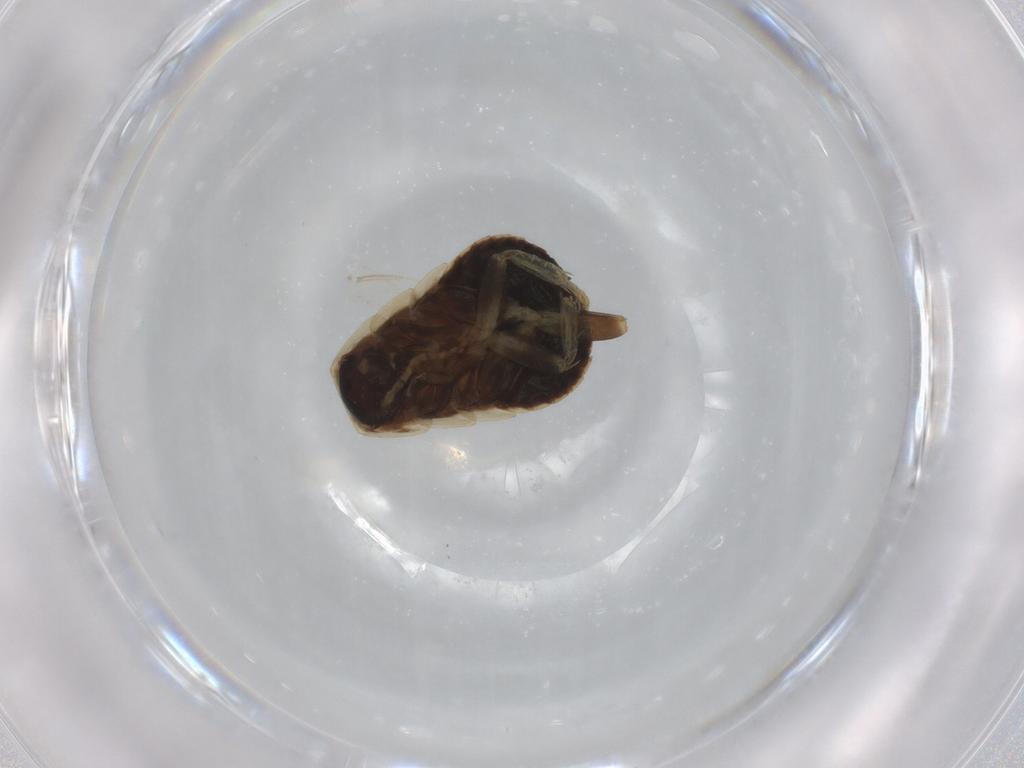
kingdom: Animalia
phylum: Arthropoda
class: Insecta
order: Blattodea
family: Ectobiidae
